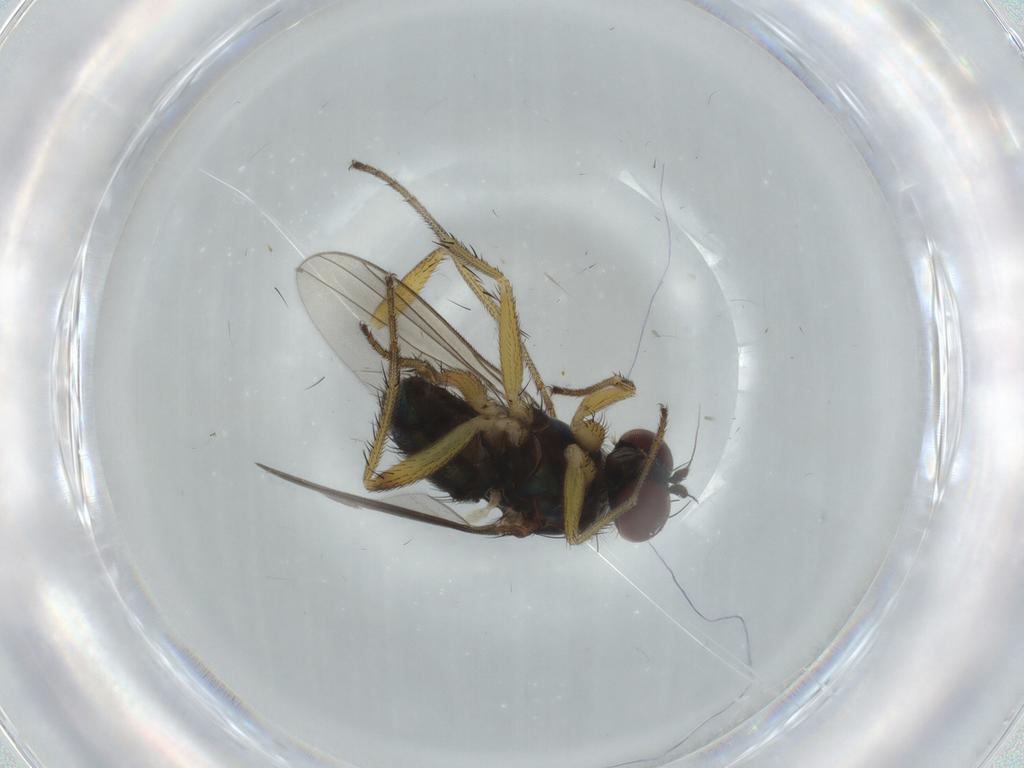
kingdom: Animalia
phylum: Arthropoda
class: Insecta
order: Diptera
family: Dolichopodidae
